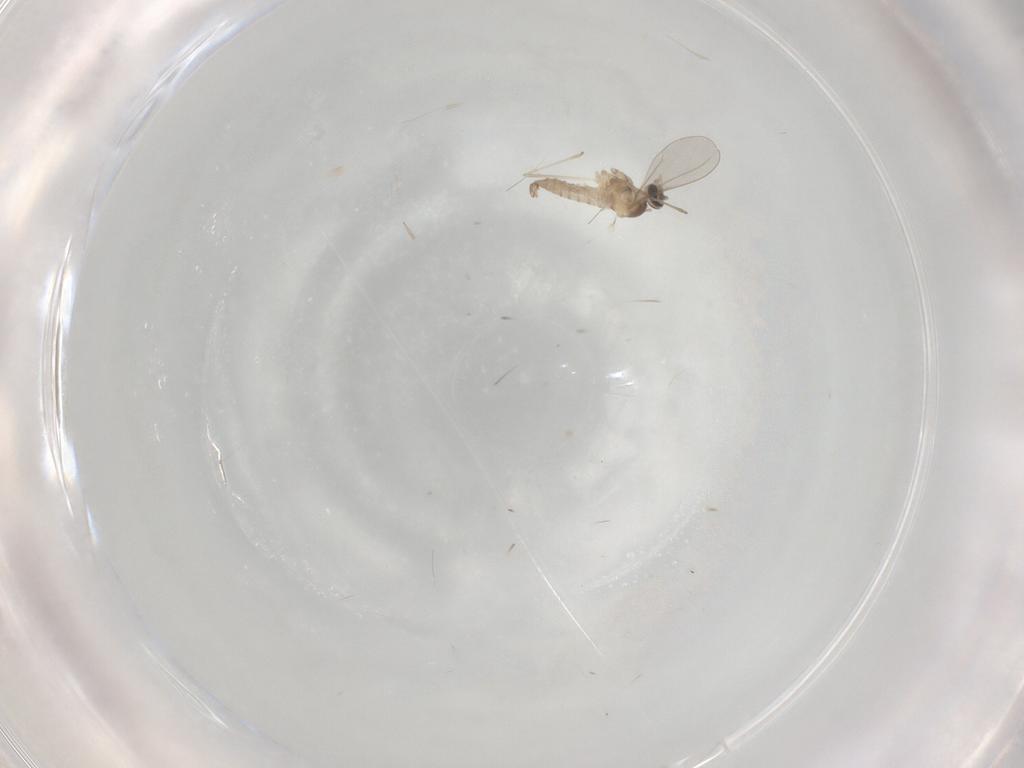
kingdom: Animalia
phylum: Arthropoda
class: Insecta
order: Diptera
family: Cecidomyiidae
